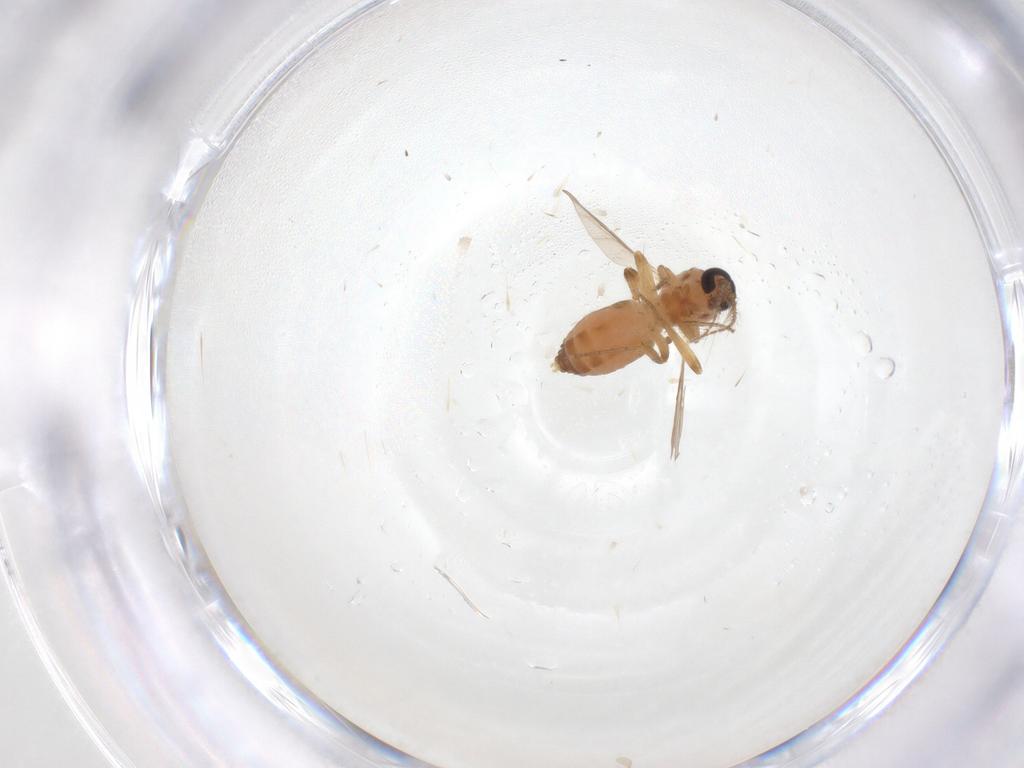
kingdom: Animalia
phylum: Arthropoda
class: Insecta
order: Diptera
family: Ceratopogonidae
